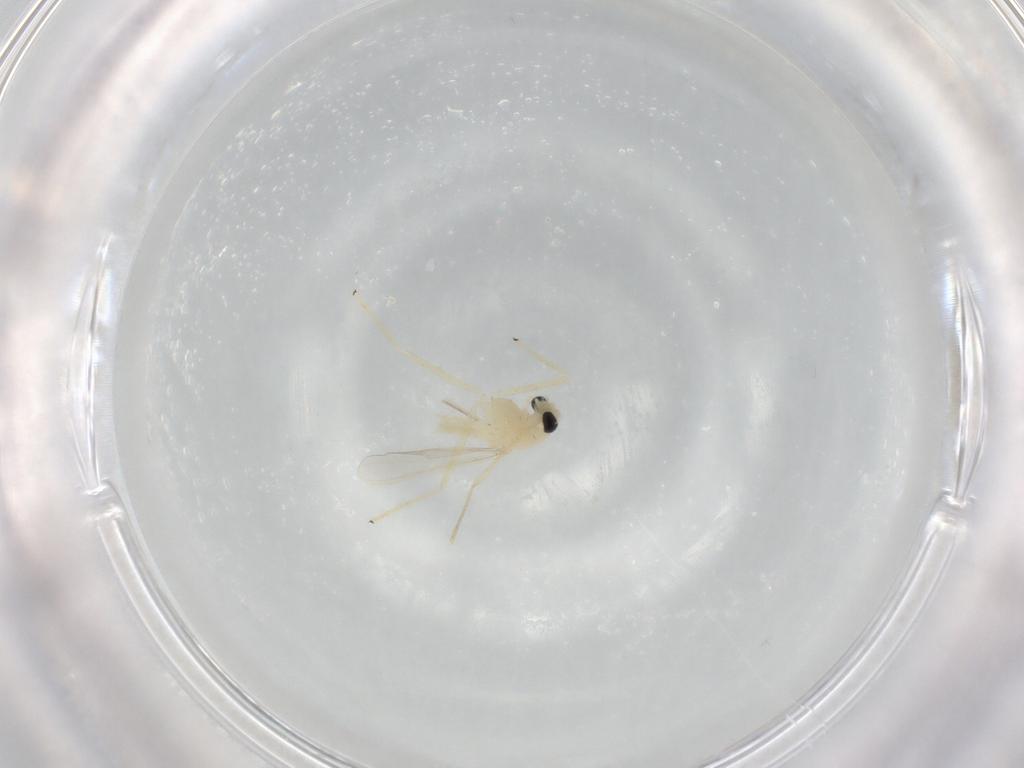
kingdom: Animalia
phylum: Arthropoda
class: Insecta
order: Diptera
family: Chironomidae
